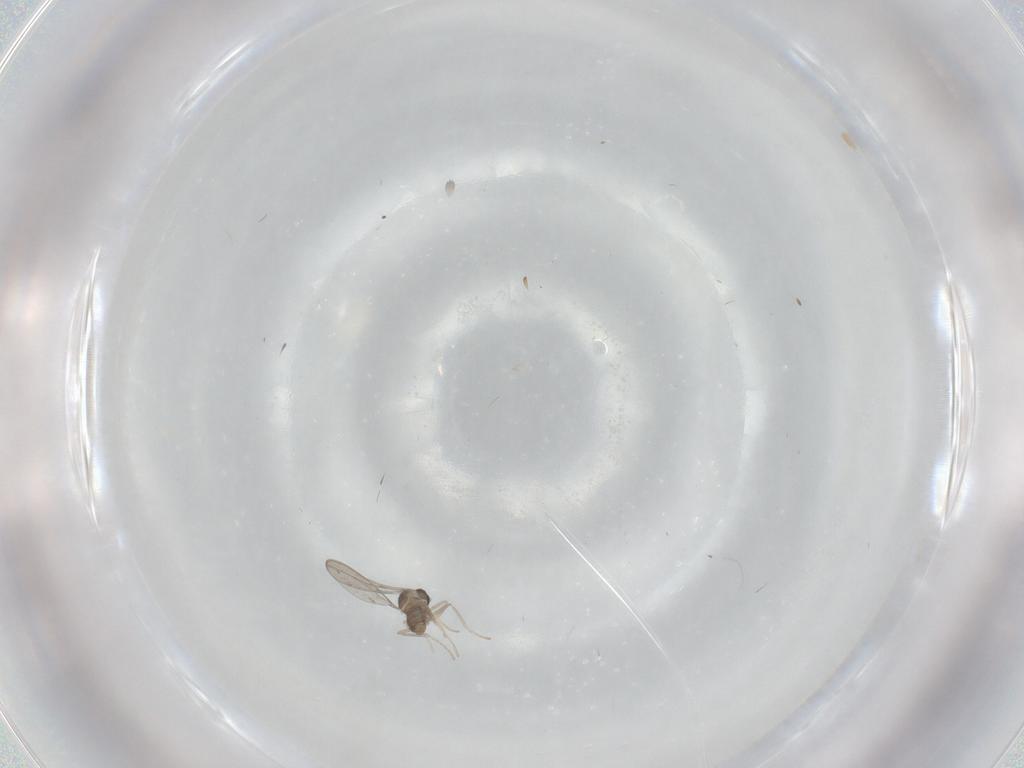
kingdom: Animalia
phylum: Arthropoda
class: Insecta
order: Diptera
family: Cecidomyiidae
